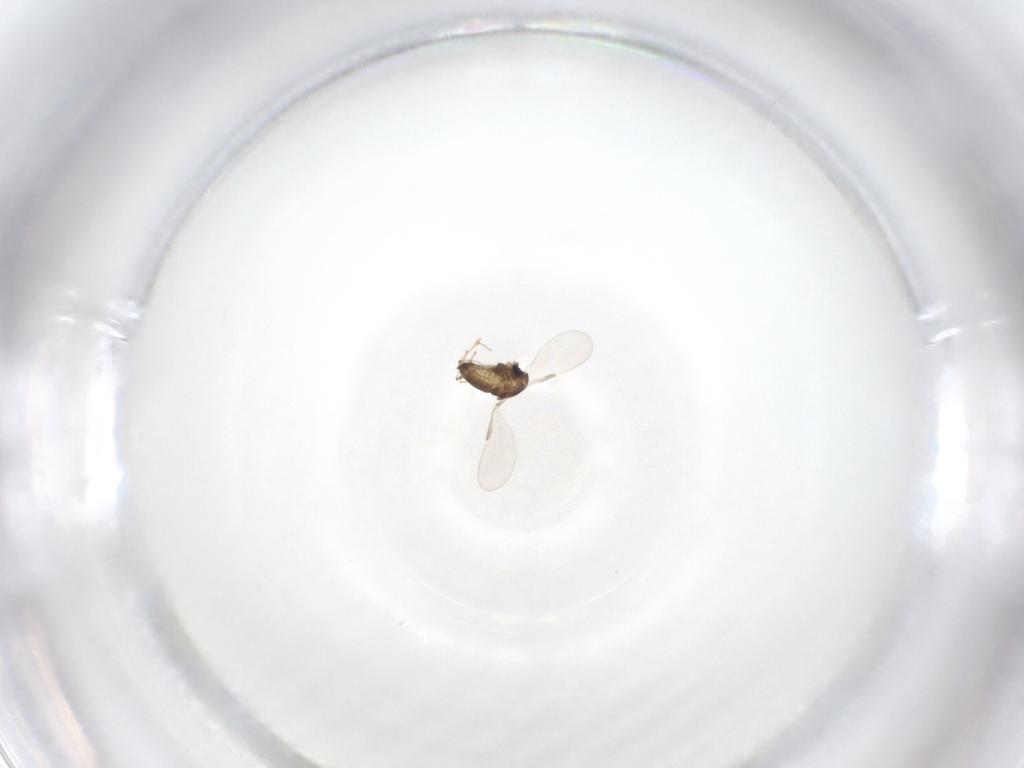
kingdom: Animalia
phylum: Arthropoda
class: Insecta
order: Diptera
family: Chironomidae
